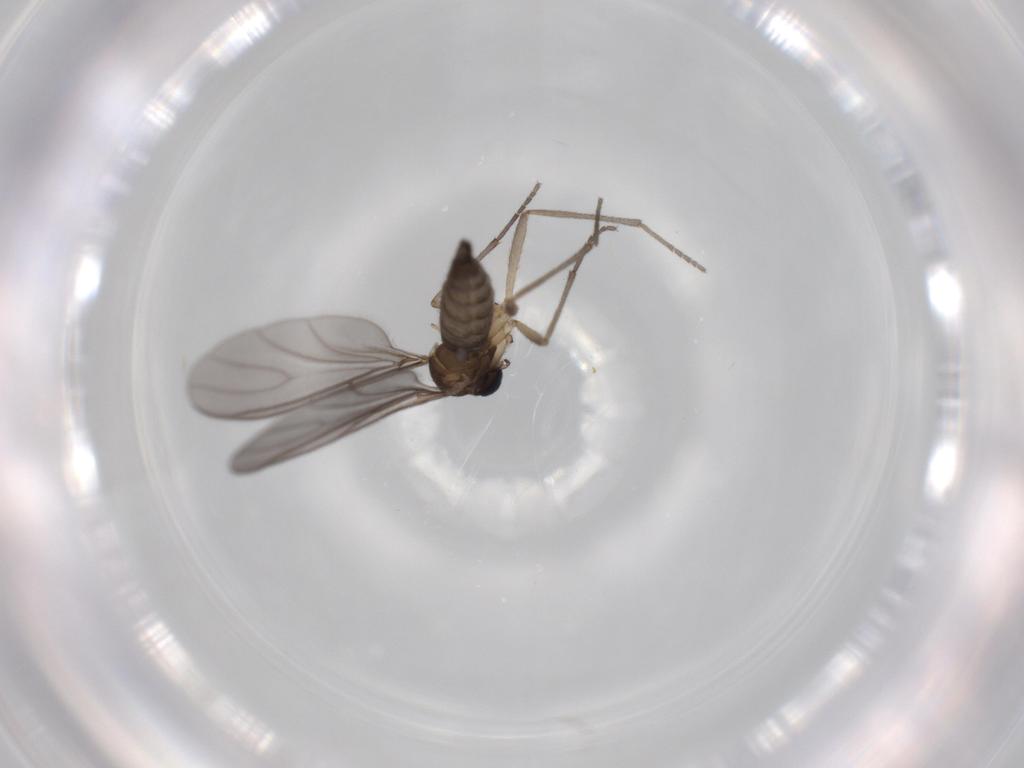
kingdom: Animalia
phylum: Arthropoda
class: Insecta
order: Diptera
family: Sciaridae
